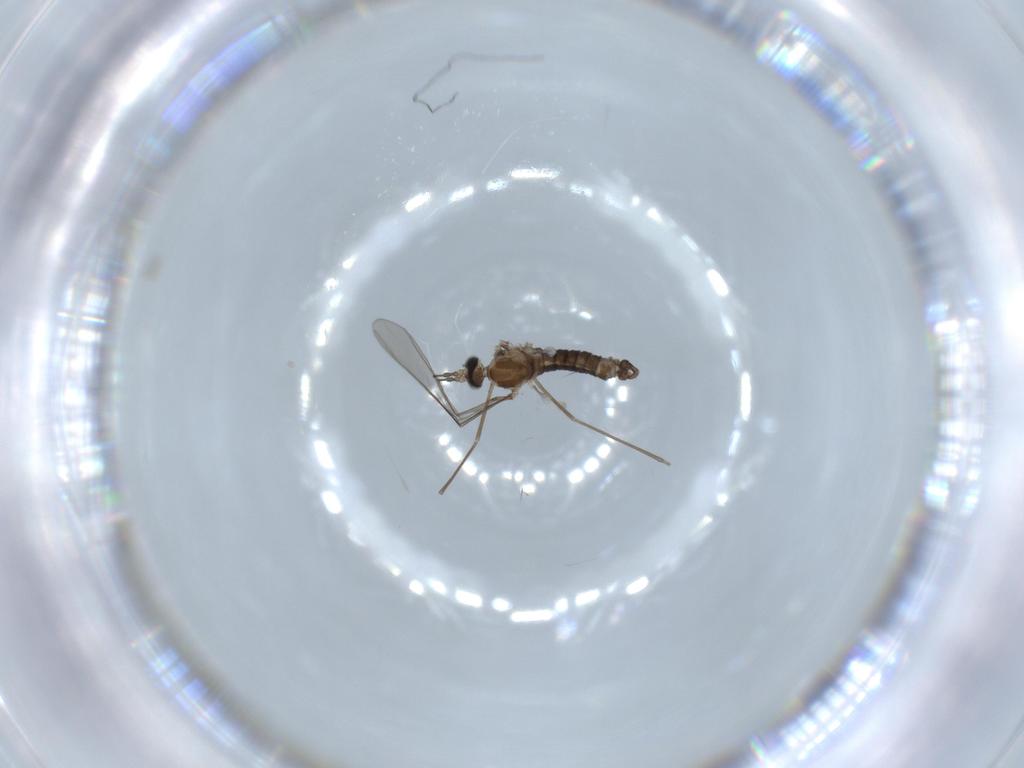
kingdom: Animalia
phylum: Arthropoda
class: Insecta
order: Diptera
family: Cecidomyiidae
